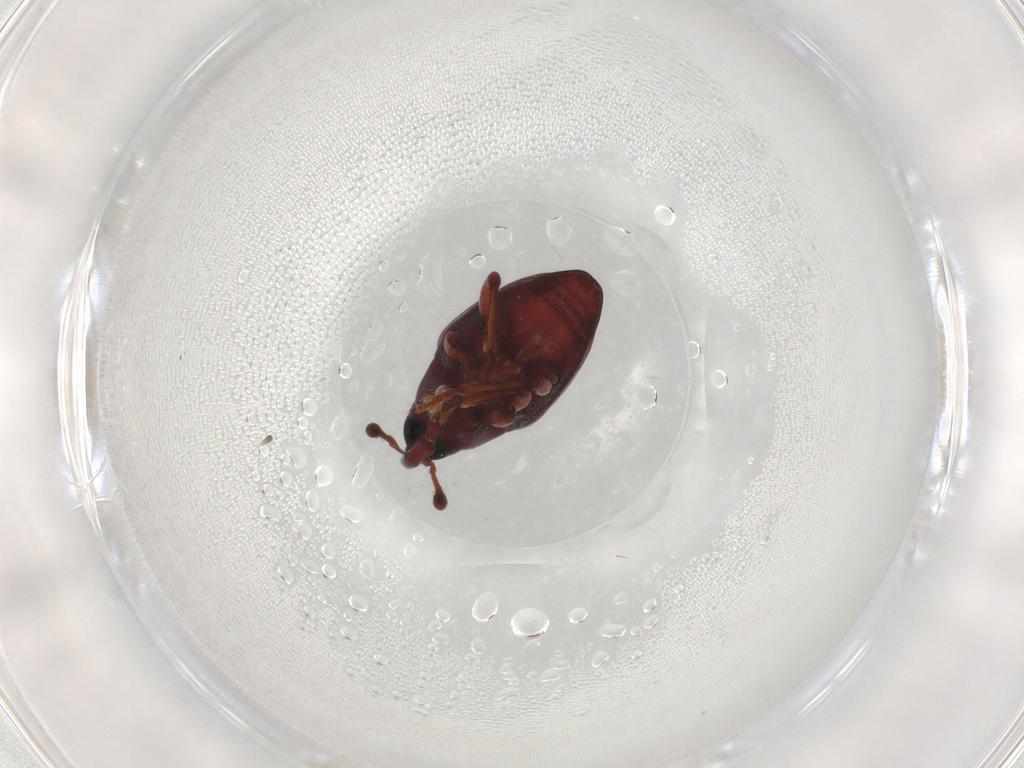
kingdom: Animalia
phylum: Arthropoda
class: Insecta
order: Coleoptera
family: Curculionidae
